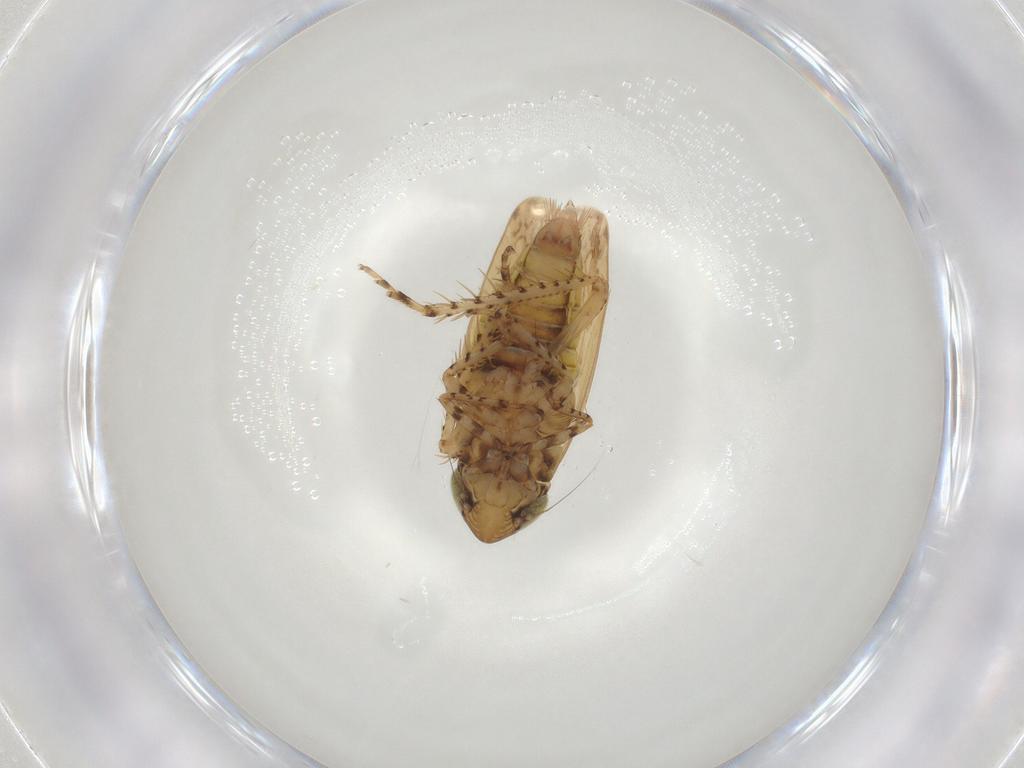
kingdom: Animalia
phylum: Arthropoda
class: Insecta
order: Hemiptera
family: Cicadellidae
